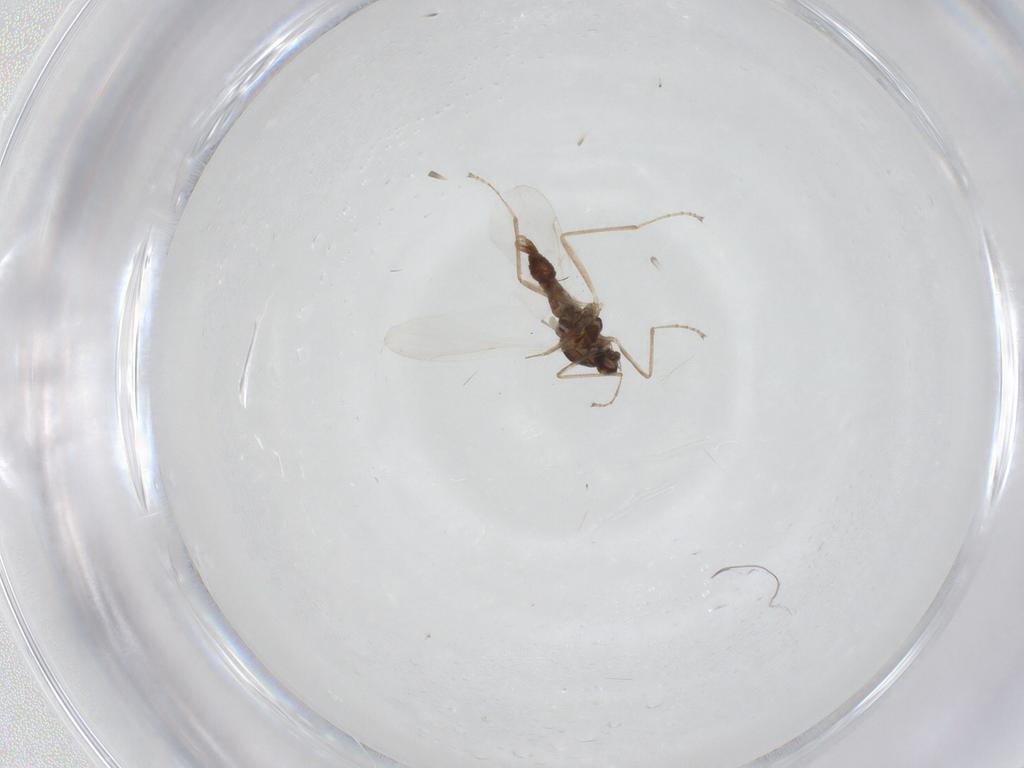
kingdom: Animalia
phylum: Arthropoda
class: Insecta
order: Diptera
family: Cecidomyiidae
